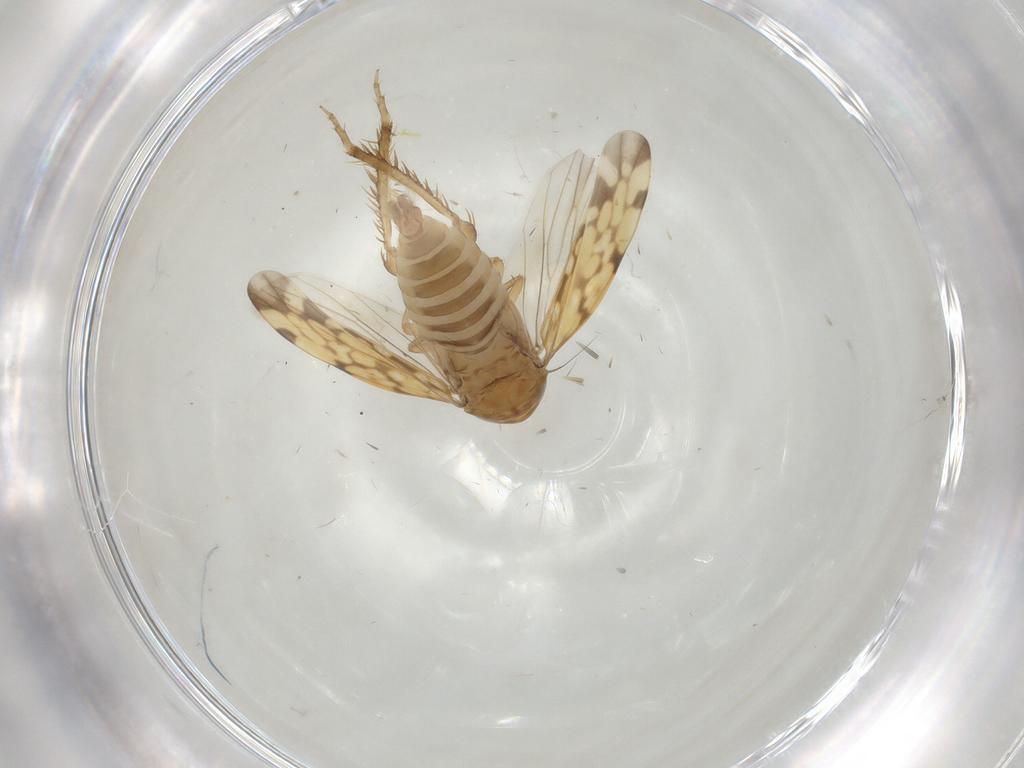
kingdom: Animalia
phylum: Arthropoda
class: Insecta
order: Hemiptera
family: Cicadellidae
